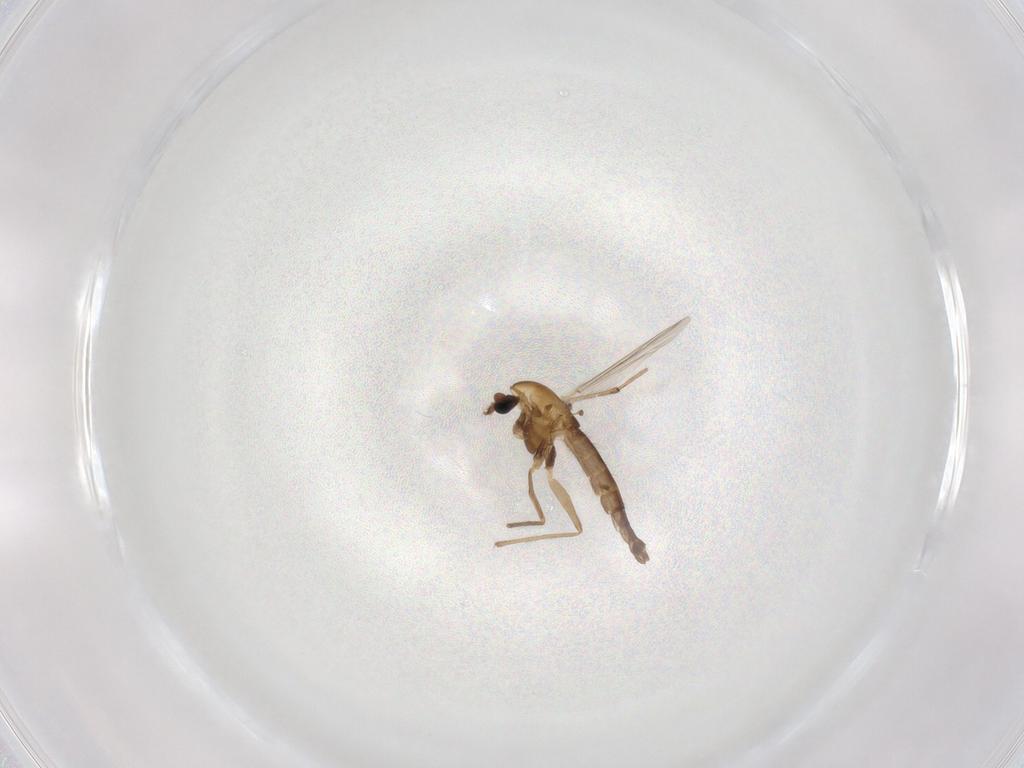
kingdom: Animalia
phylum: Arthropoda
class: Insecta
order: Diptera
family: Chironomidae
